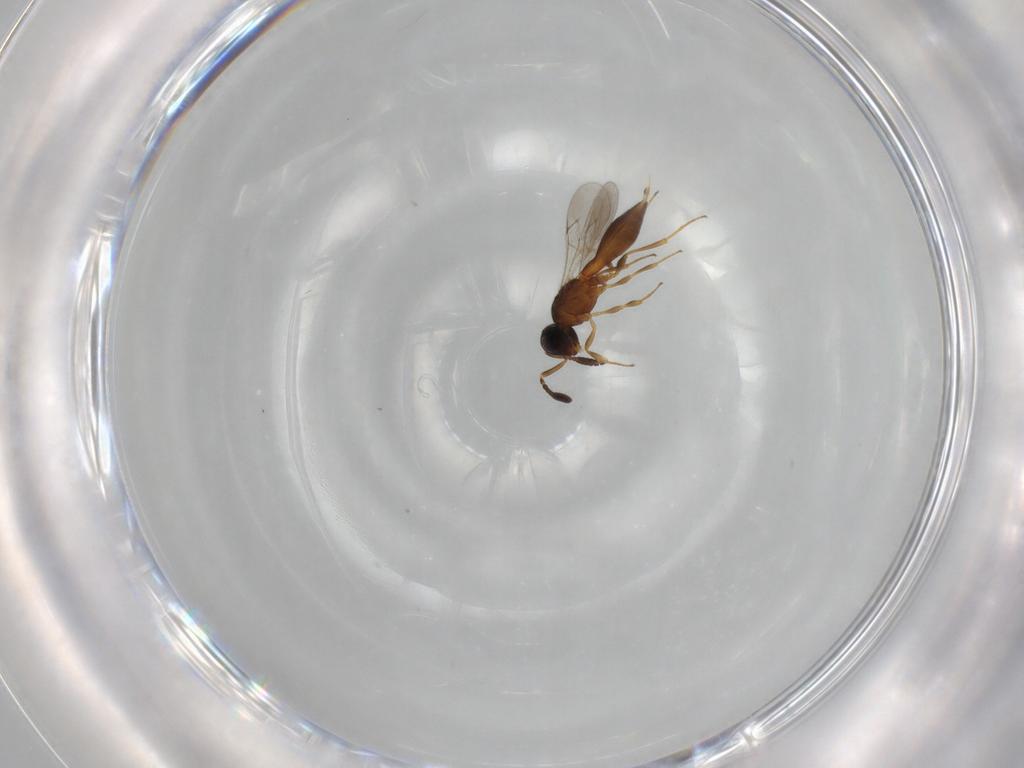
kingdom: Animalia
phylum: Arthropoda
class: Insecta
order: Hymenoptera
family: Scelionidae
